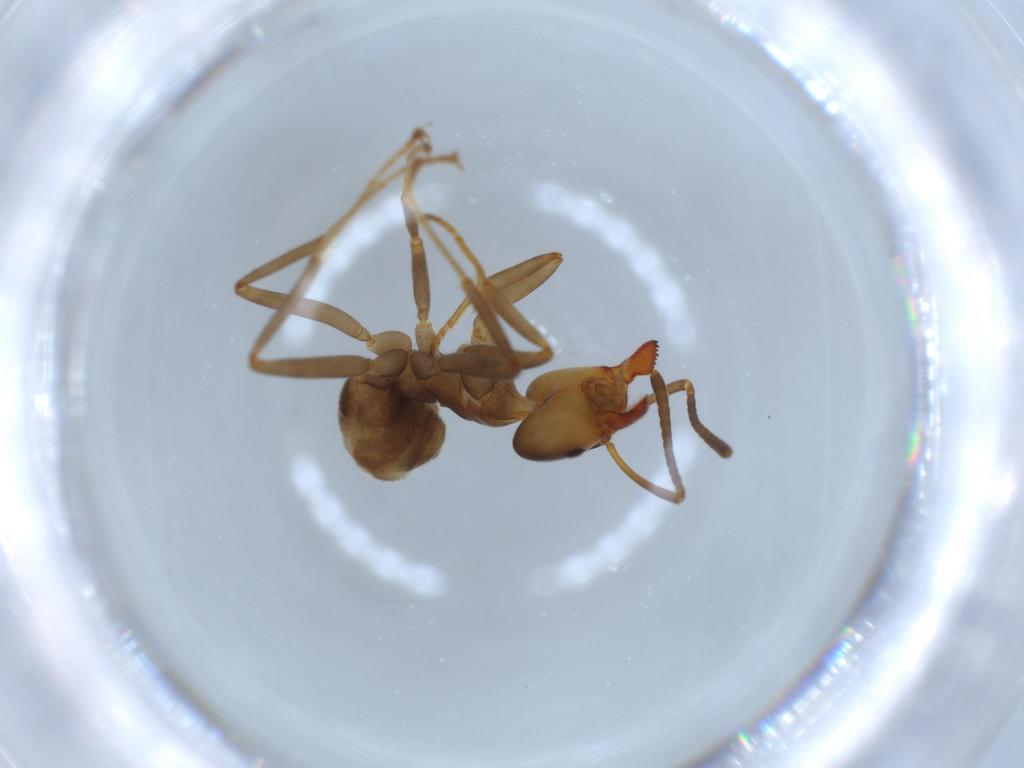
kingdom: Animalia
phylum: Arthropoda
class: Insecta
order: Hymenoptera
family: Formicidae
